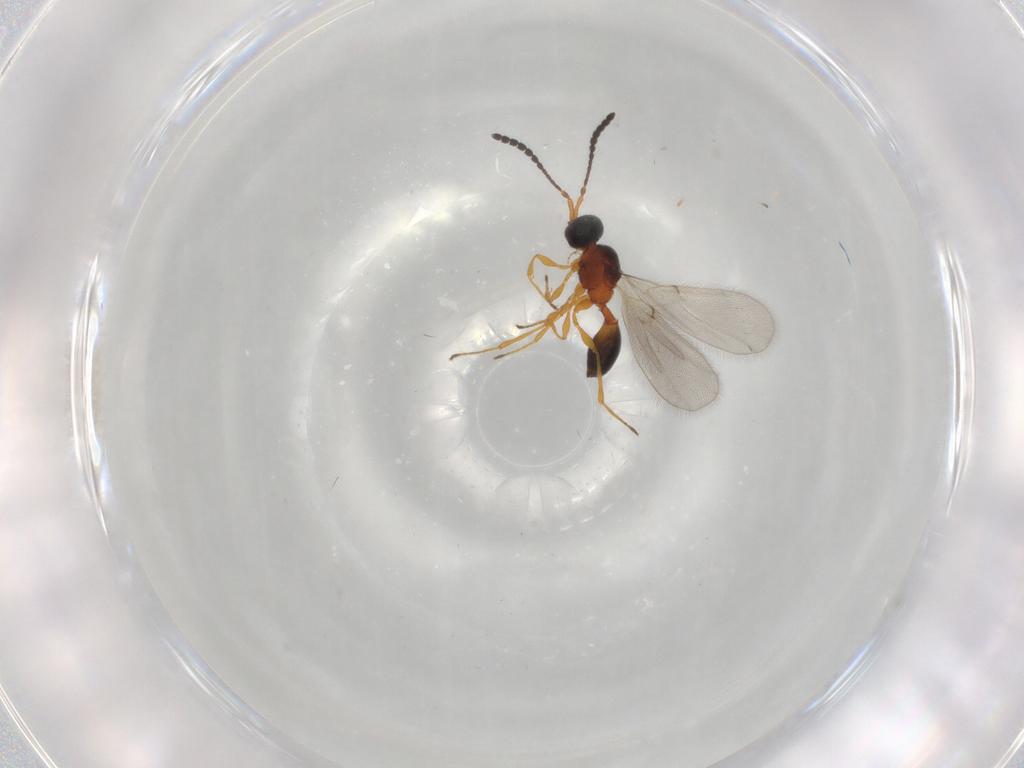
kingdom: Animalia
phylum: Arthropoda
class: Insecta
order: Hymenoptera
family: Diapriidae
